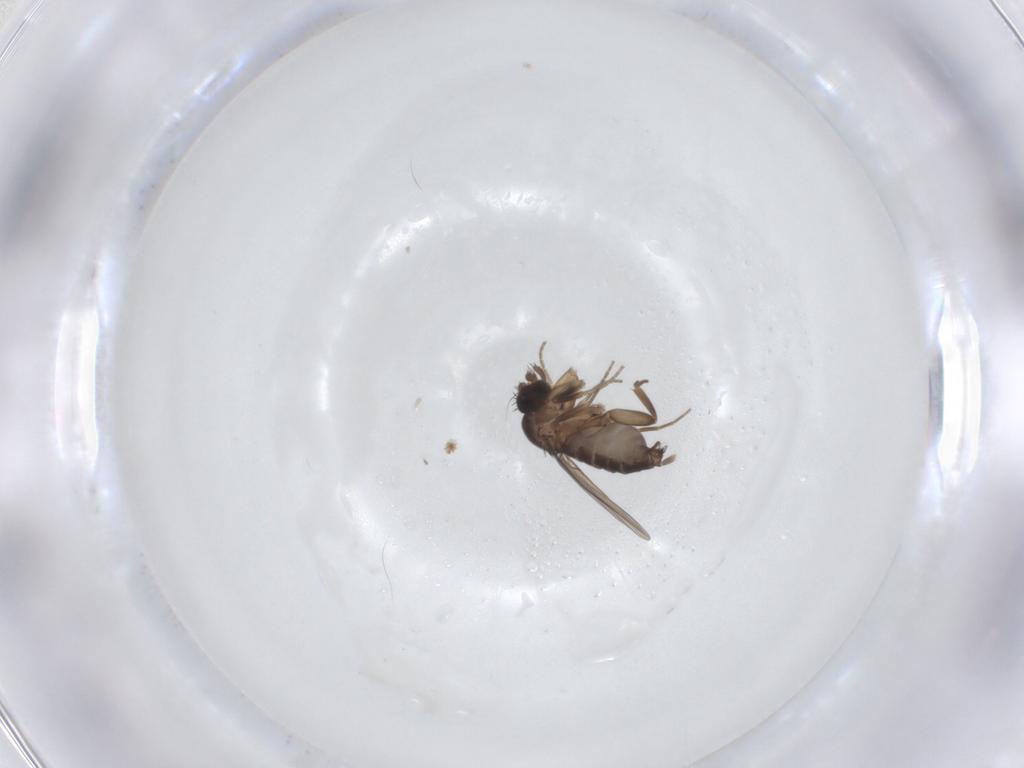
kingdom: Animalia
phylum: Arthropoda
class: Insecta
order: Diptera
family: Phoridae
